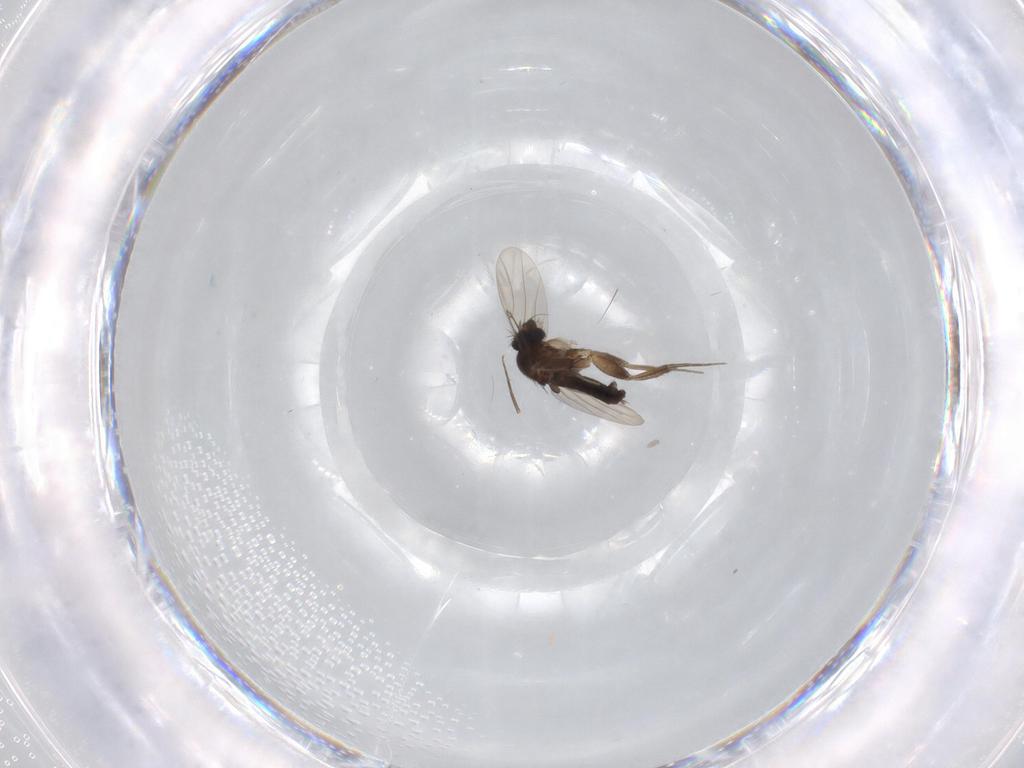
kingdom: Animalia
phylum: Arthropoda
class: Insecta
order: Diptera
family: Phoridae
